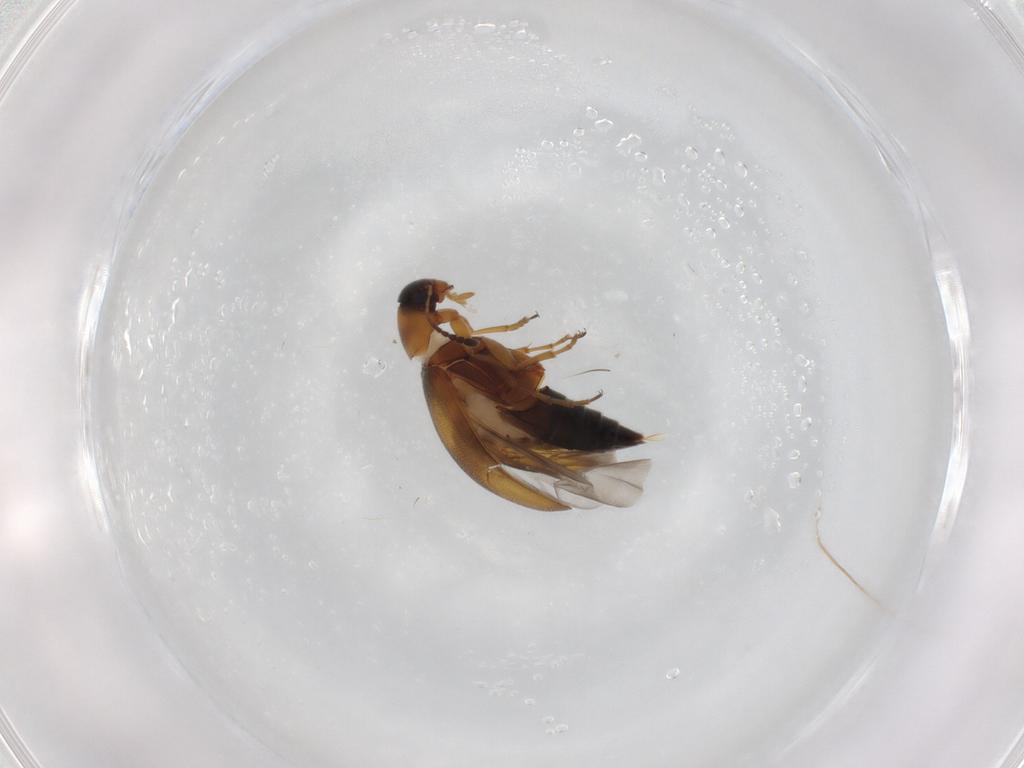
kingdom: Animalia
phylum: Arthropoda
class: Insecta
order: Coleoptera
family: Scraptiidae
